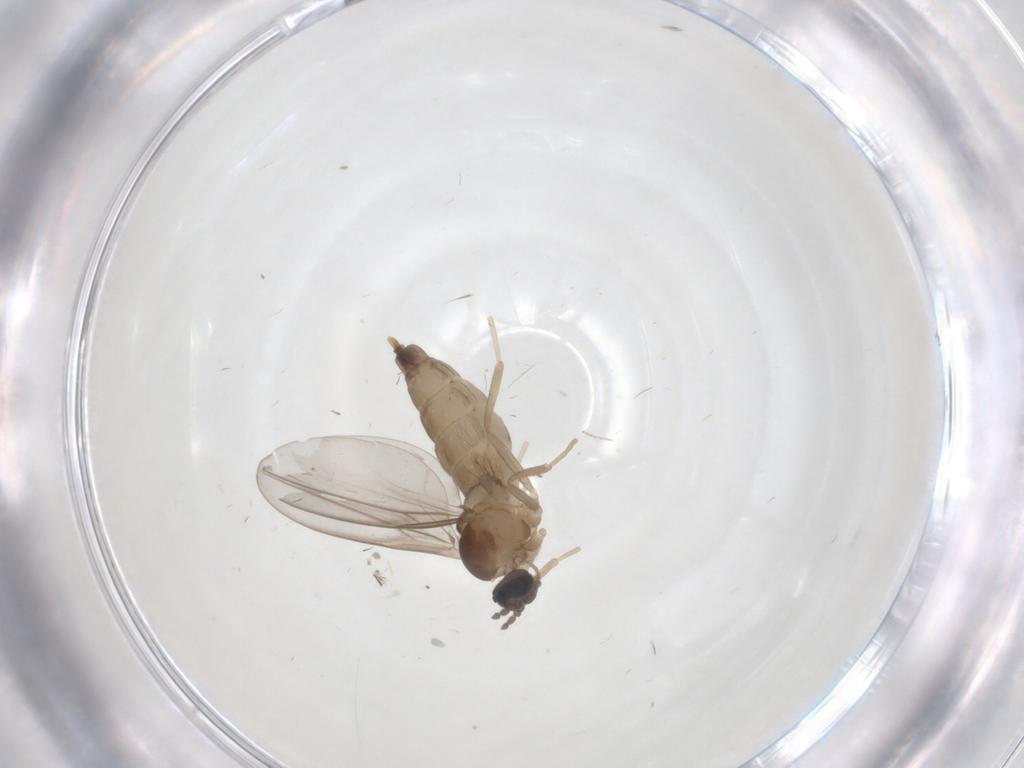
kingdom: Animalia
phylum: Arthropoda
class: Insecta
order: Diptera
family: Cecidomyiidae
